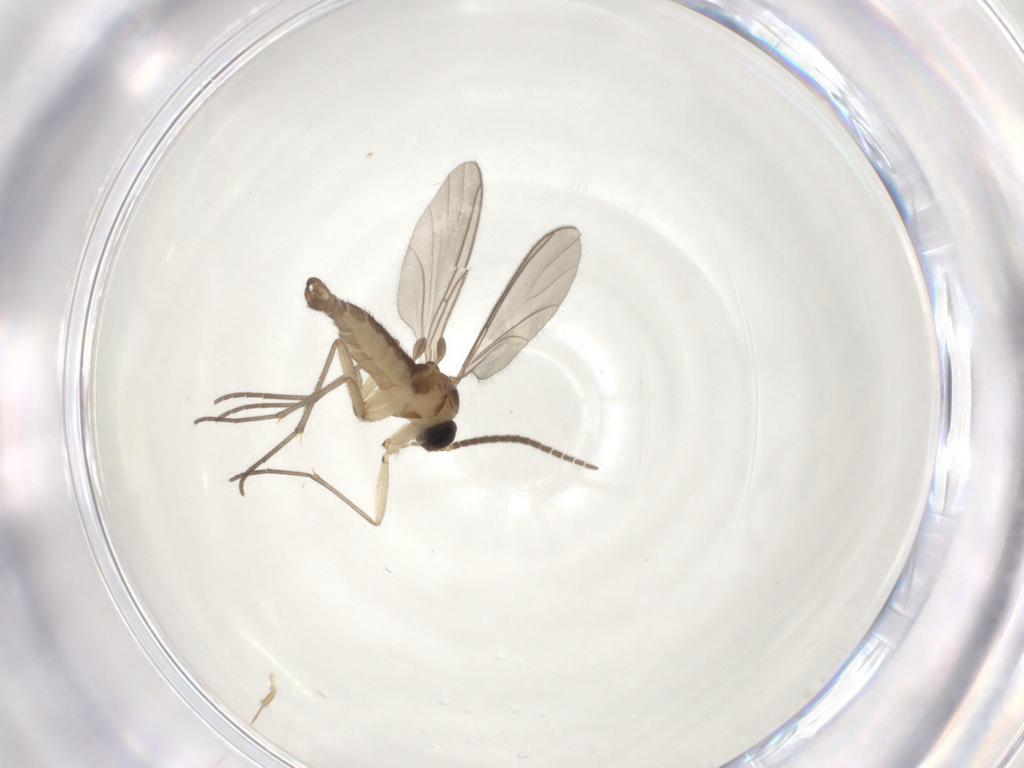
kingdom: Animalia
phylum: Arthropoda
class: Insecta
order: Diptera
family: Sciaridae
